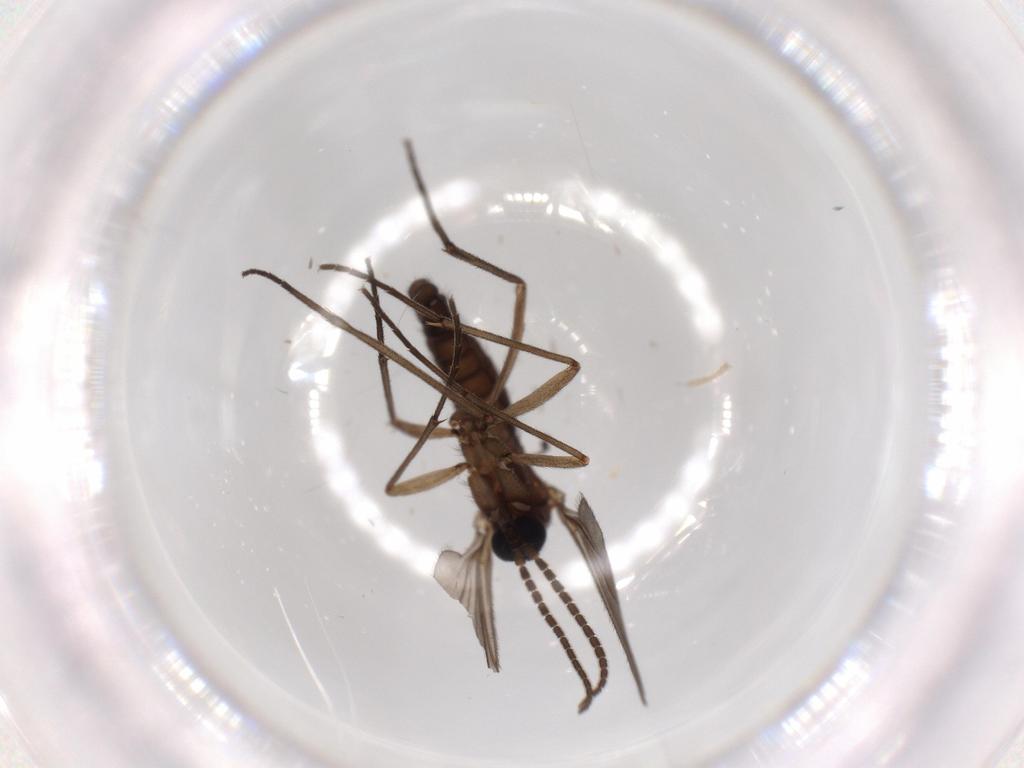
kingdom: Animalia
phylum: Arthropoda
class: Insecta
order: Diptera
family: Sciaridae
